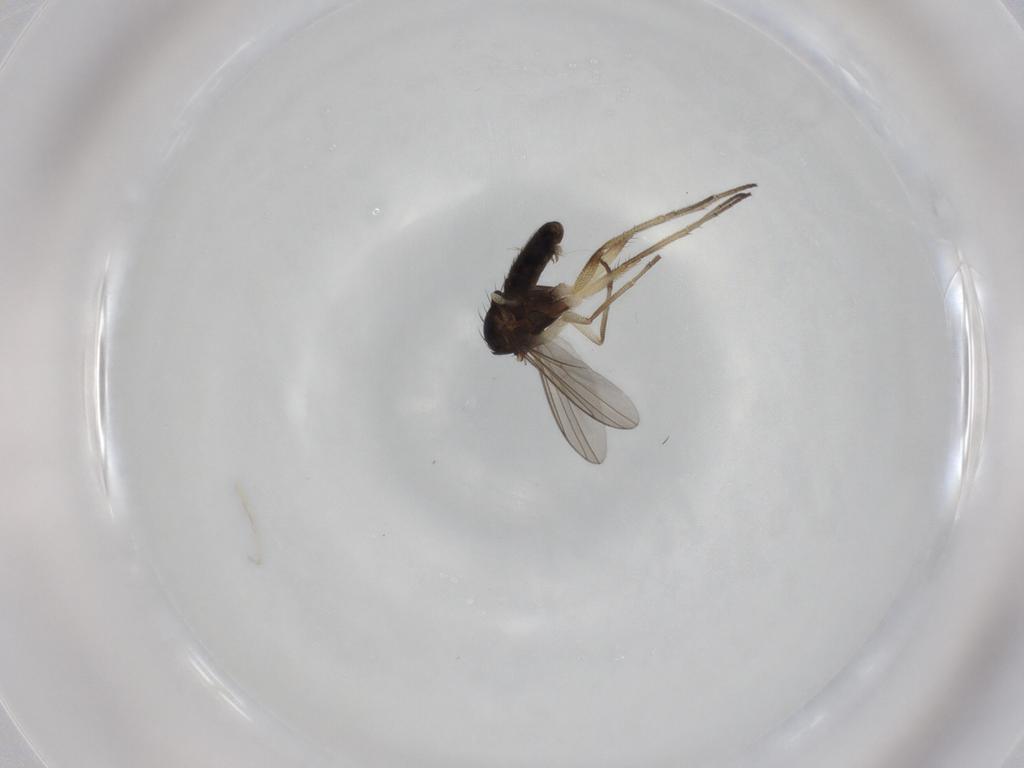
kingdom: Animalia
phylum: Arthropoda
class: Insecta
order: Diptera
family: Dolichopodidae
